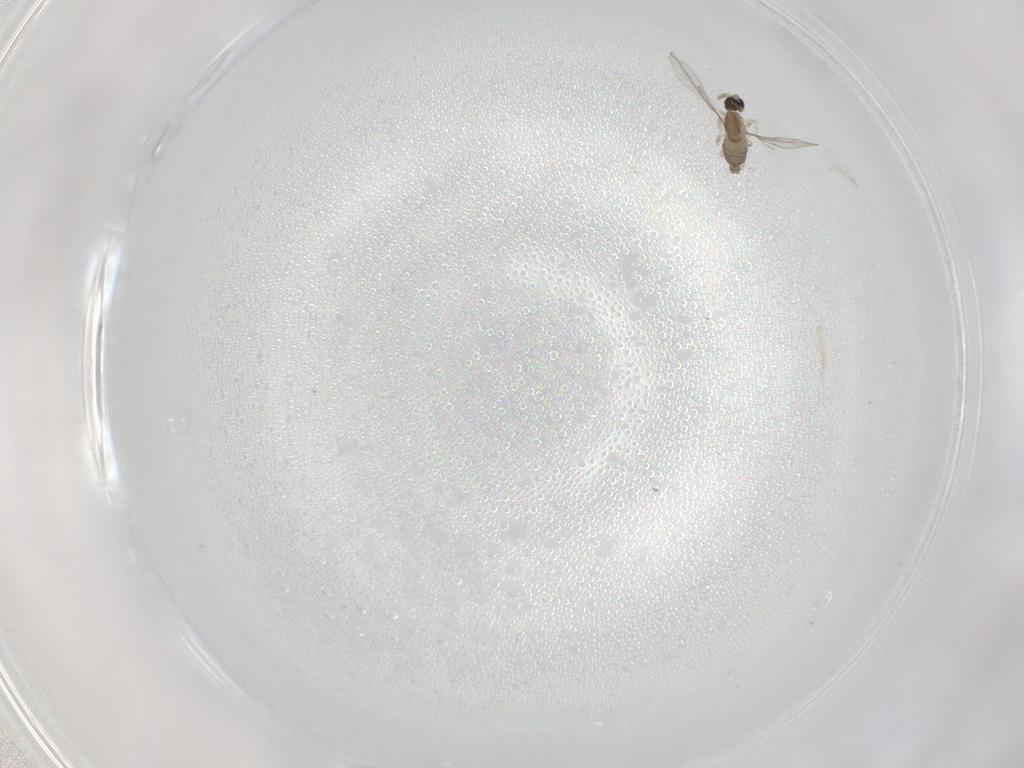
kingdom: Animalia
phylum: Arthropoda
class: Insecta
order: Diptera
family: Cecidomyiidae
